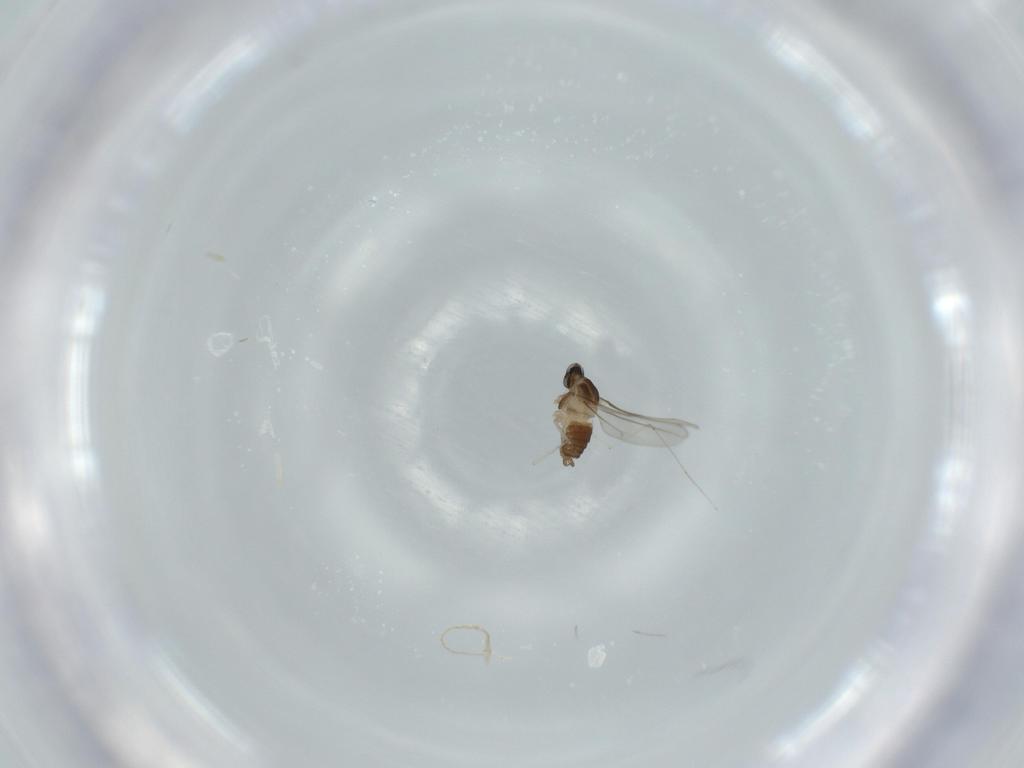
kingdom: Animalia
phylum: Arthropoda
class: Insecta
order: Diptera
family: Cecidomyiidae
